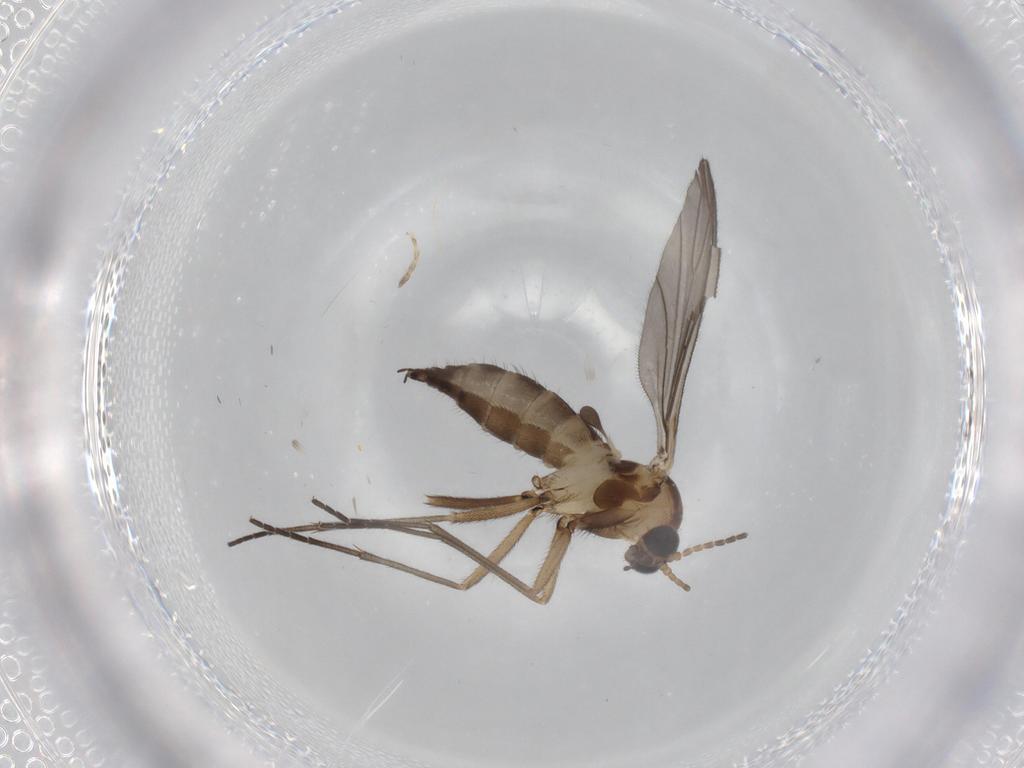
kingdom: Animalia
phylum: Arthropoda
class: Insecta
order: Diptera
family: Sciaridae
